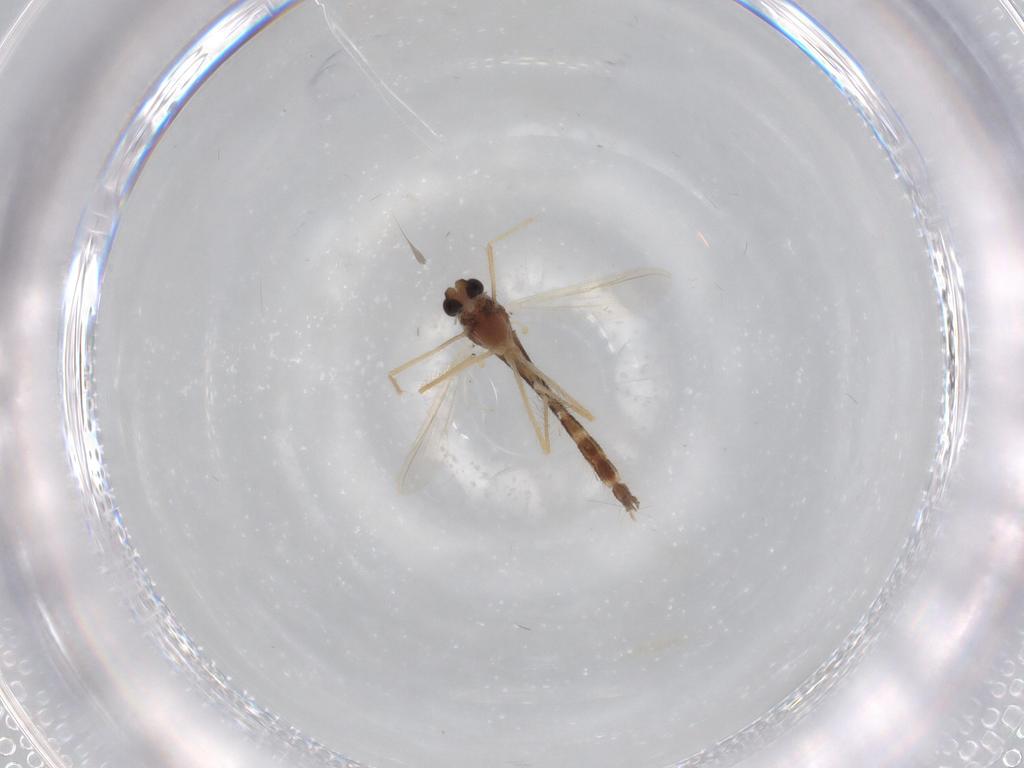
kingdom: Animalia
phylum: Arthropoda
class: Insecta
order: Diptera
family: Chironomidae
